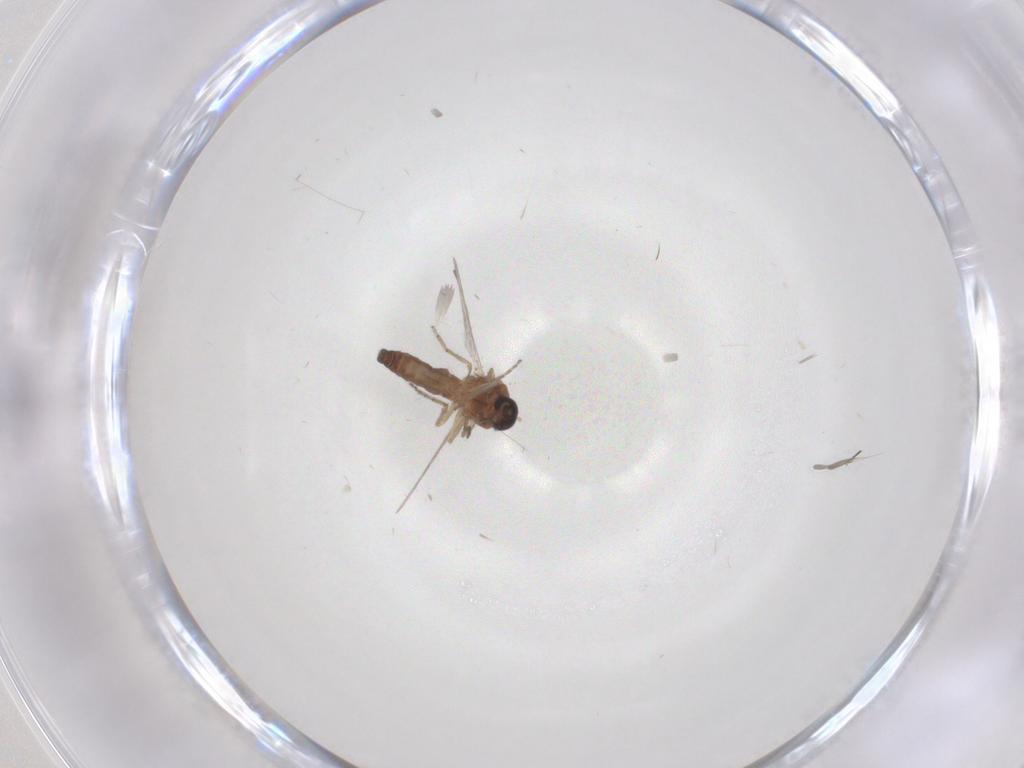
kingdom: Animalia
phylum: Arthropoda
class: Insecta
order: Diptera
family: Ceratopogonidae
